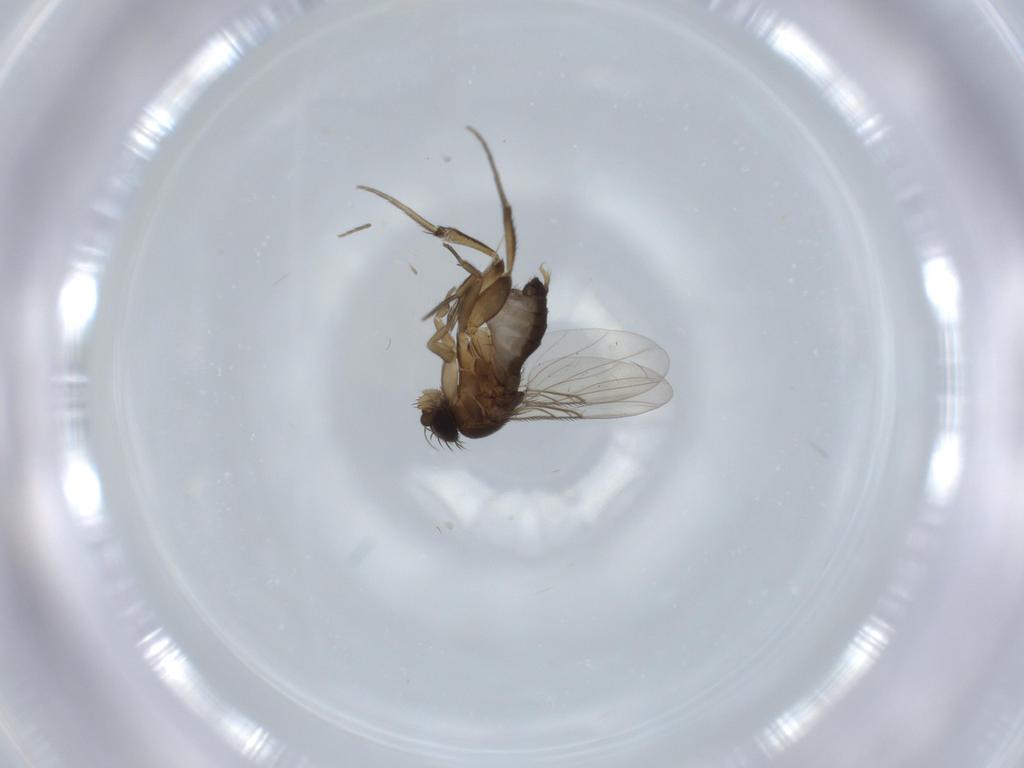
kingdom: Animalia
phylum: Arthropoda
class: Insecta
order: Diptera
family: Phoridae
